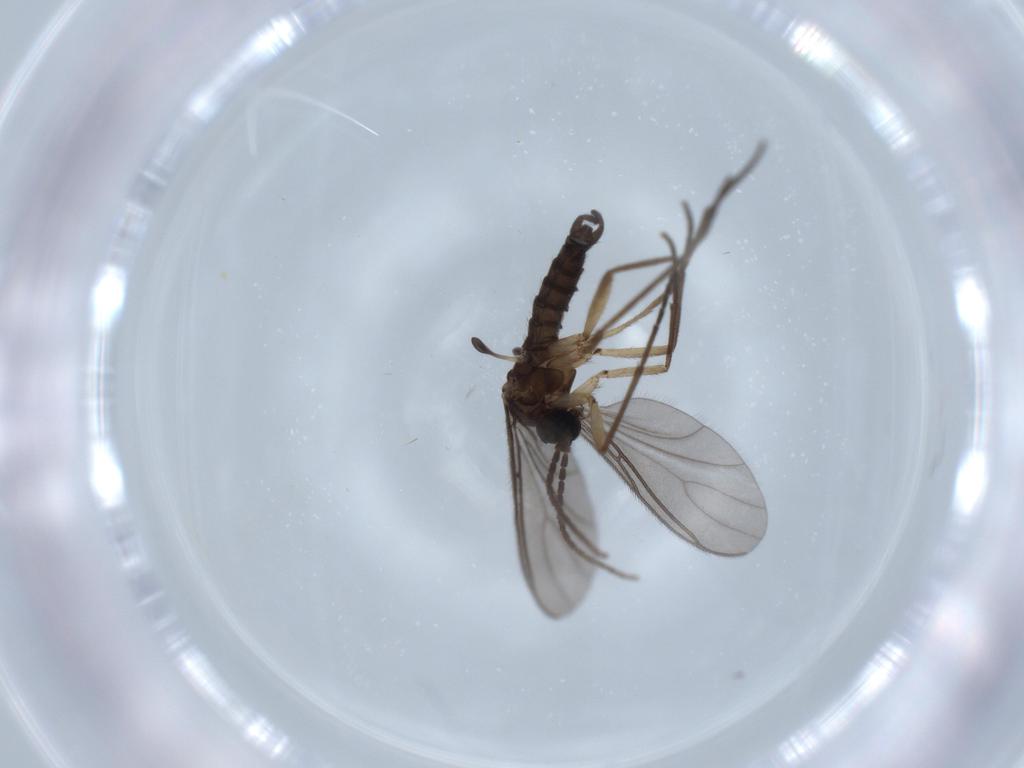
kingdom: Animalia
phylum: Arthropoda
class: Insecta
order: Diptera
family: Sciaridae
